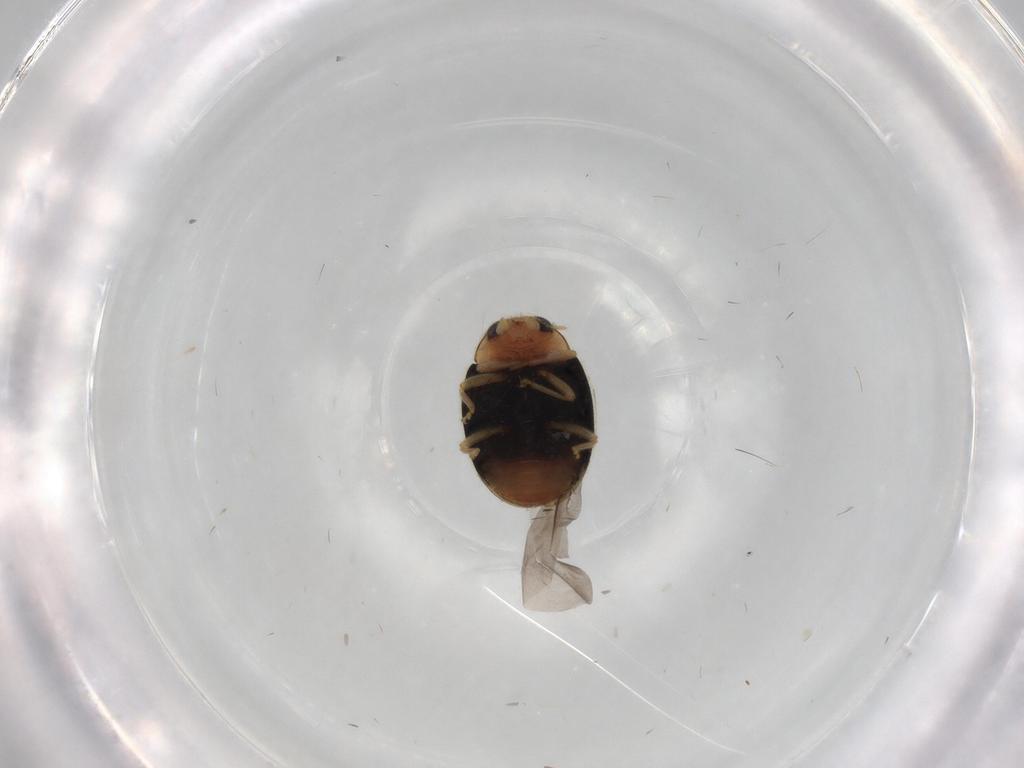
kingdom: Animalia
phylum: Arthropoda
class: Insecta
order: Coleoptera
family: Coccinellidae
